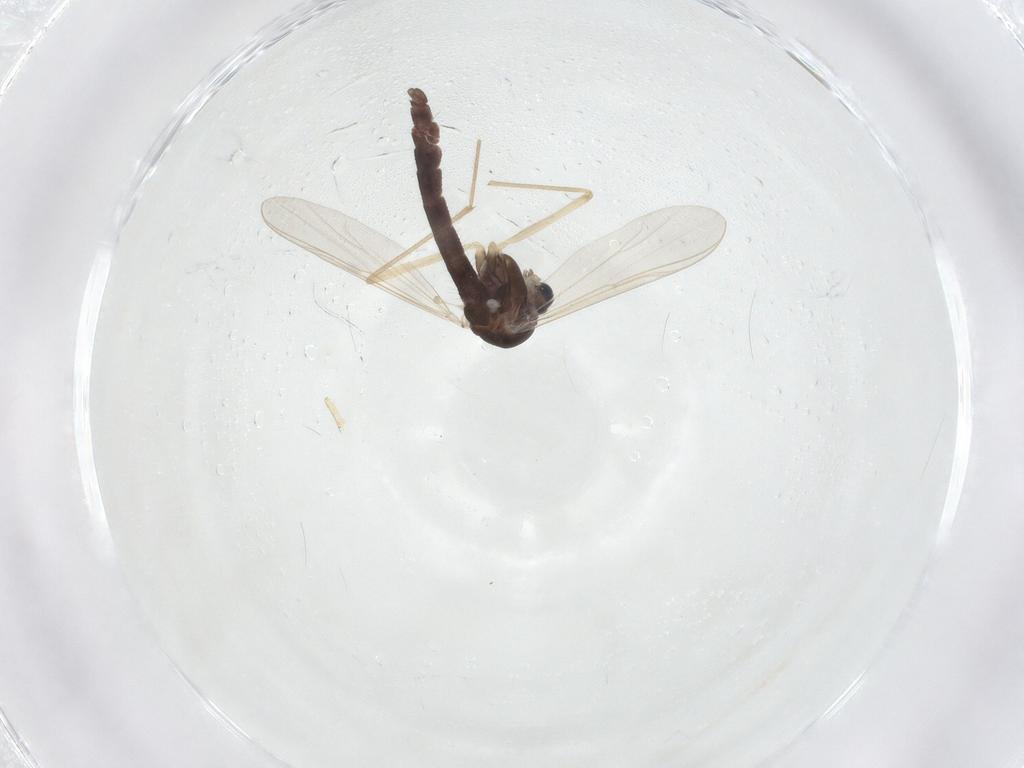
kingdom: Animalia
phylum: Arthropoda
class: Insecta
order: Diptera
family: Chironomidae
